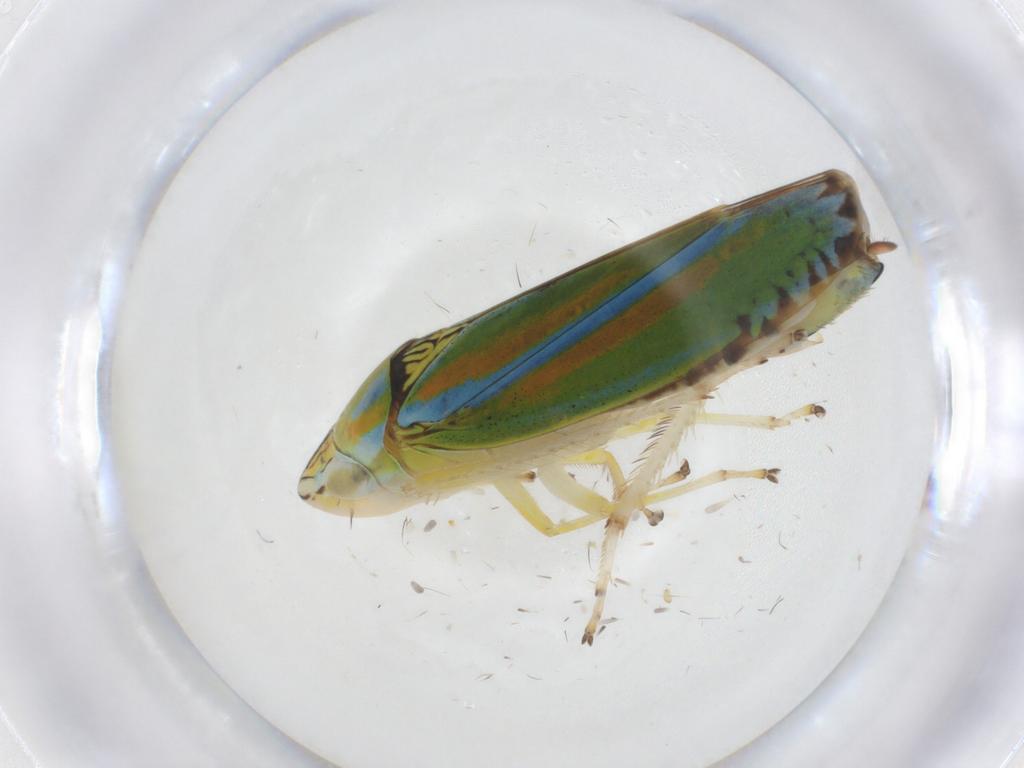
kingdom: Animalia
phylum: Arthropoda
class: Insecta
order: Hemiptera
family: Cicadellidae
